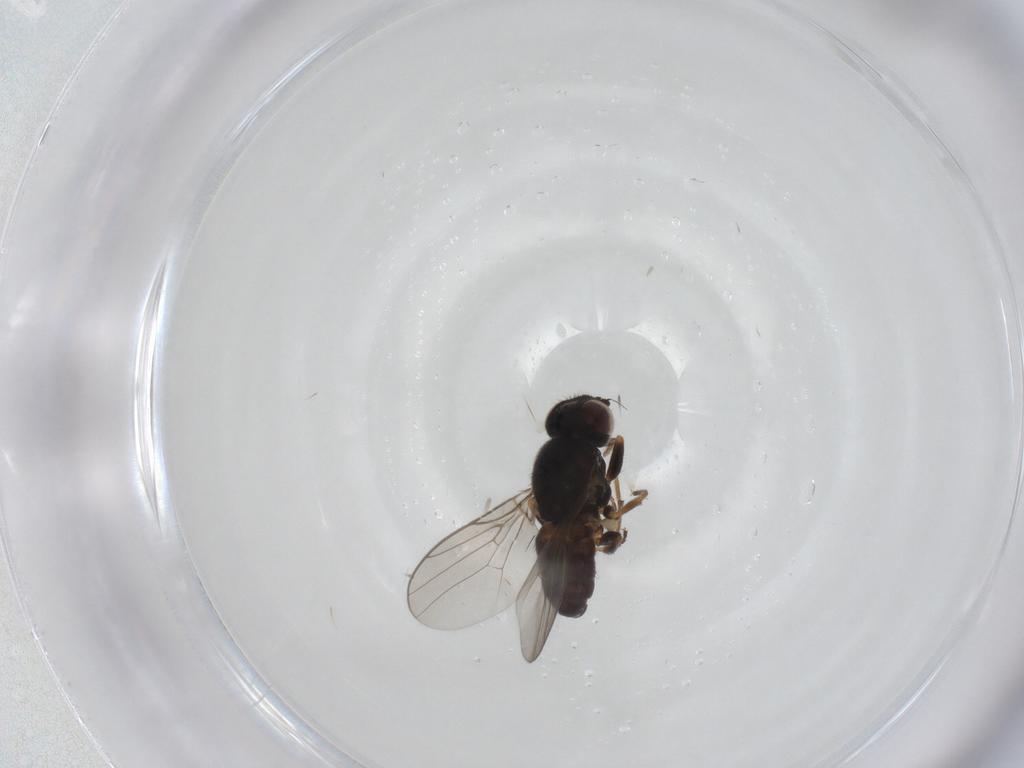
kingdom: Animalia
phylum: Arthropoda
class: Insecta
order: Diptera
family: Chloropidae
